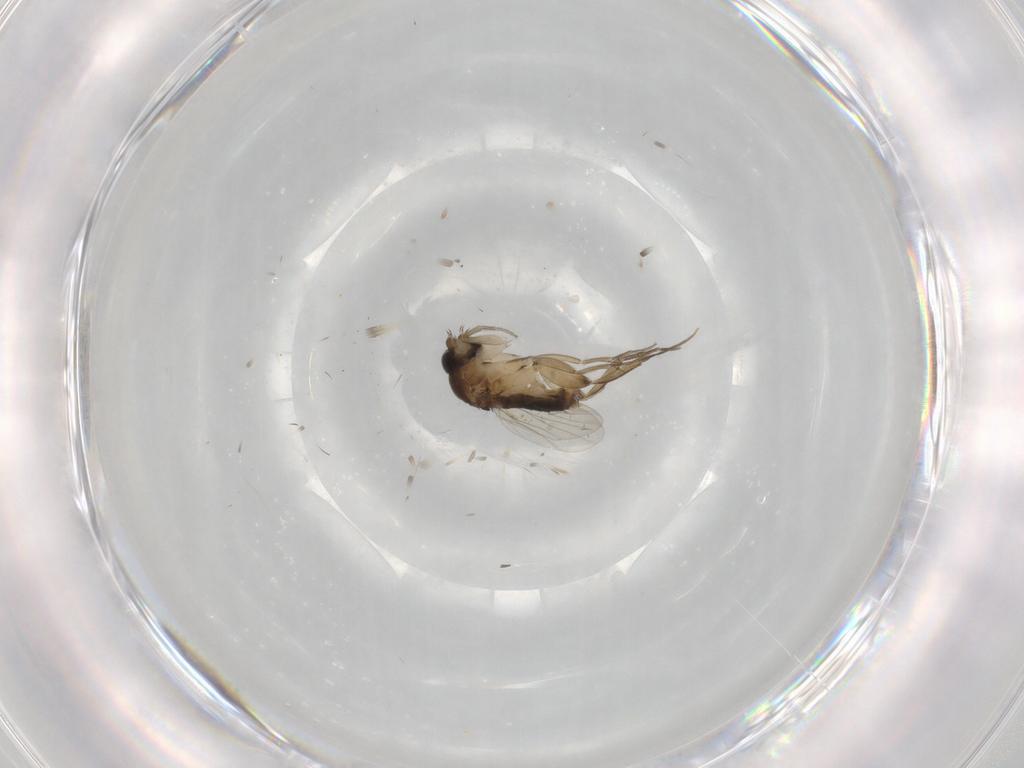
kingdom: Animalia
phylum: Arthropoda
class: Insecta
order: Diptera
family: Phoridae
